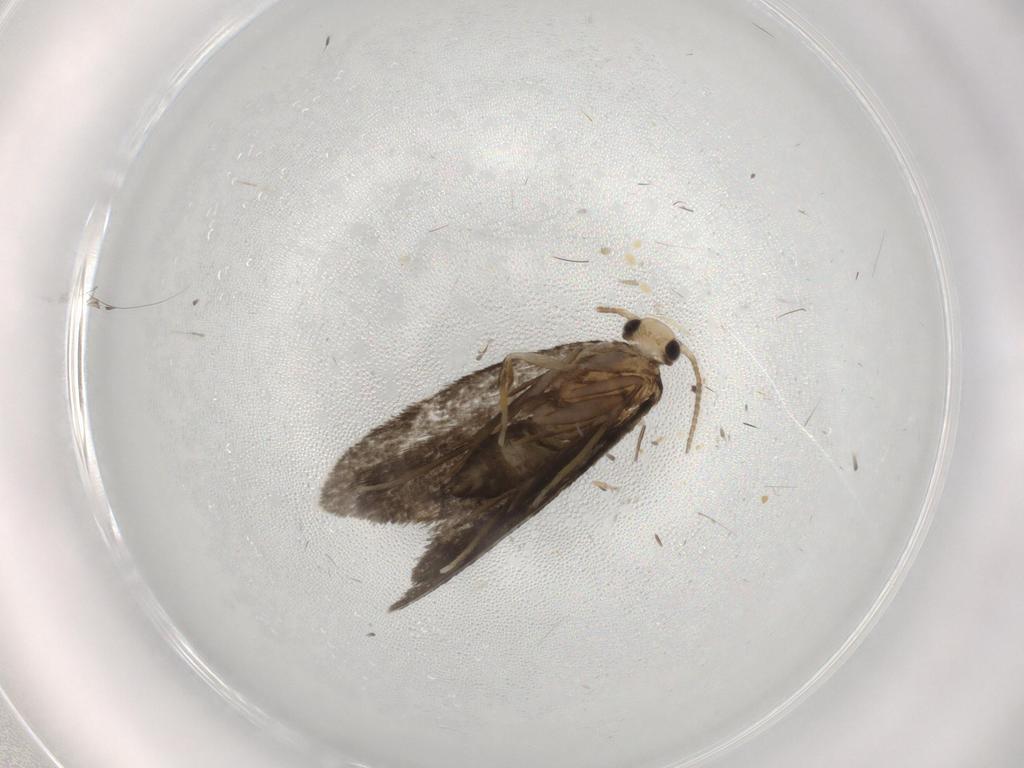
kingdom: Animalia
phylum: Arthropoda
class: Insecta
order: Lepidoptera
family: Psychidae
